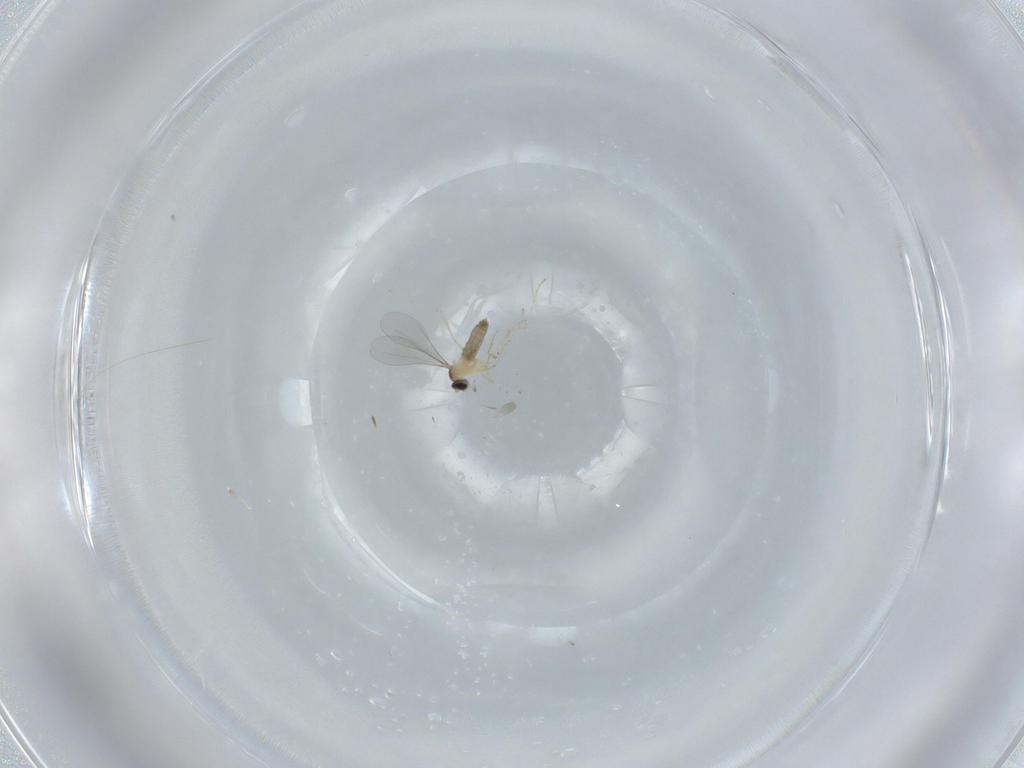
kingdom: Animalia
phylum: Arthropoda
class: Insecta
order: Diptera
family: Cecidomyiidae
